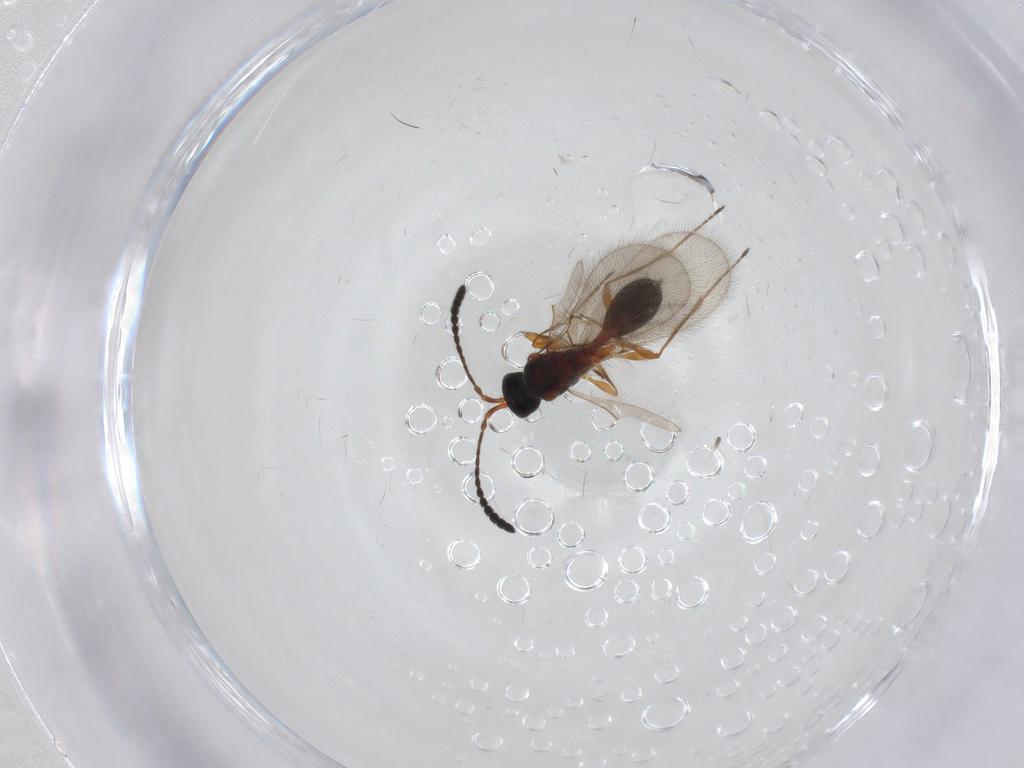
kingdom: Animalia
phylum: Arthropoda
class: Insecta
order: Hymenoptera
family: Diapriidae
